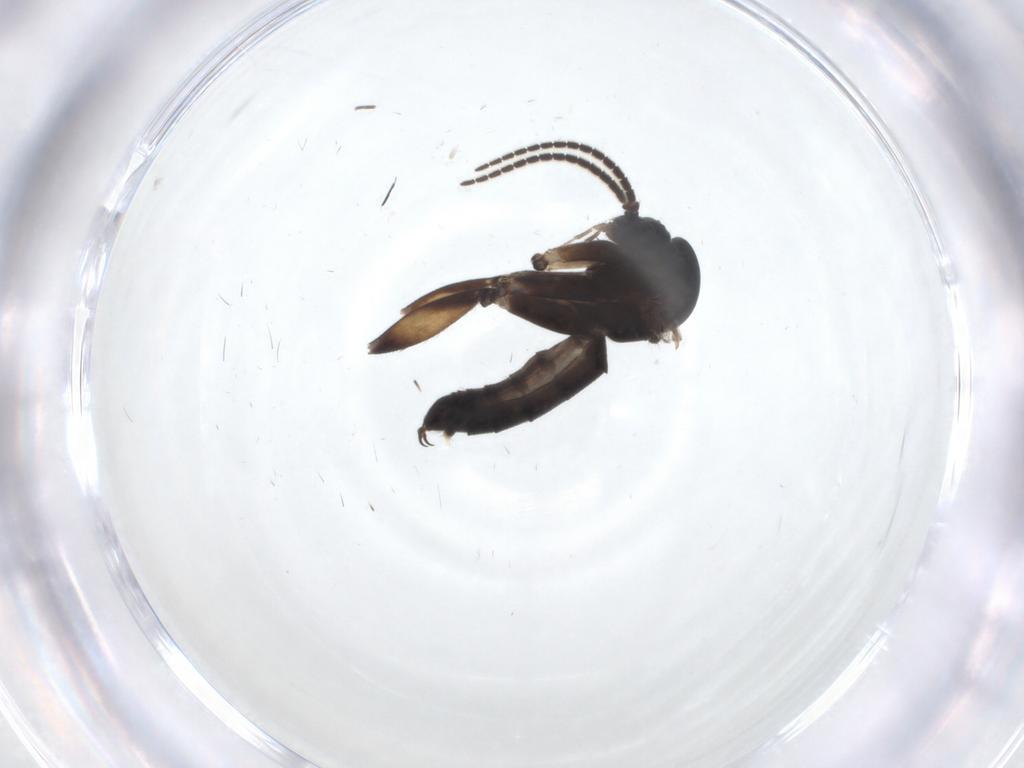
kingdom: Animalia
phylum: Arthropoda
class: Insecta
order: Diptera
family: Phoridae
